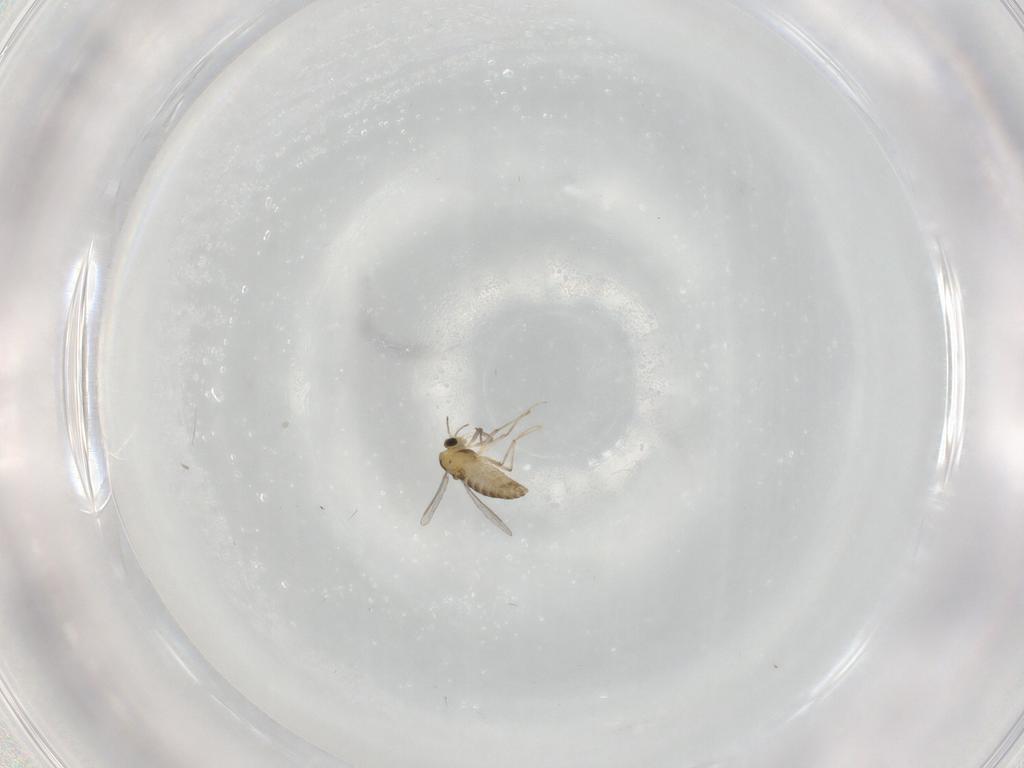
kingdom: Animalia
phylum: Arthropoda
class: Insecta
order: Diptera
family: Chironomidae
